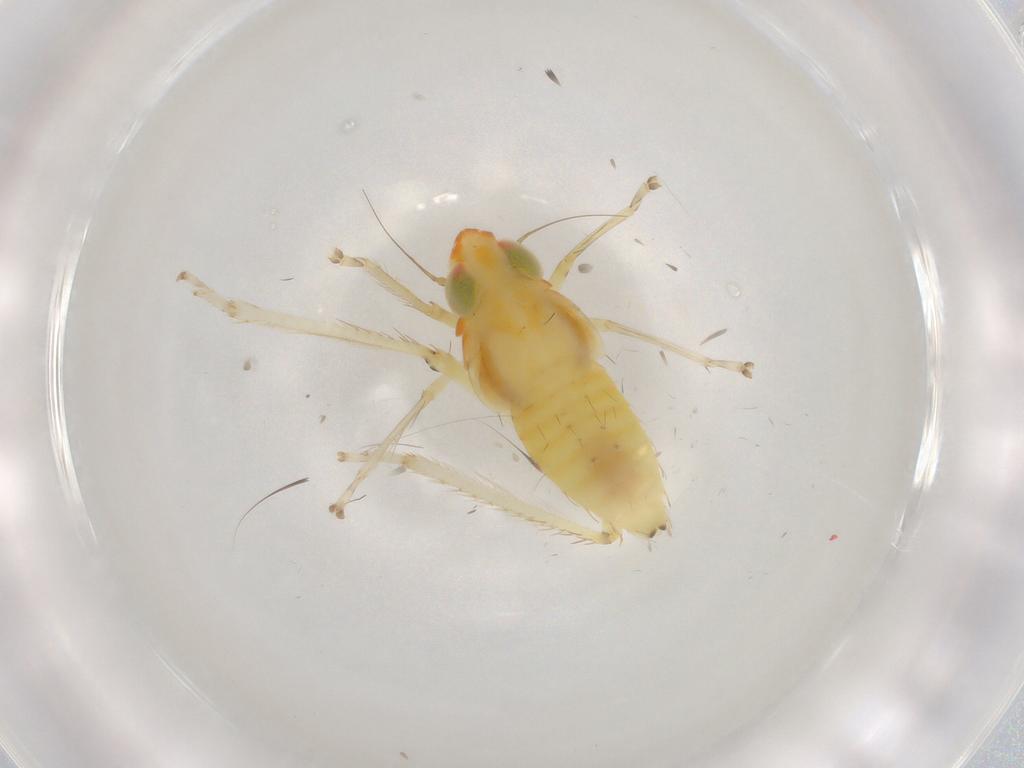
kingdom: Animalia
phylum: Arthropoda
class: Insecta
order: Hemiptera
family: Cicadellidae
